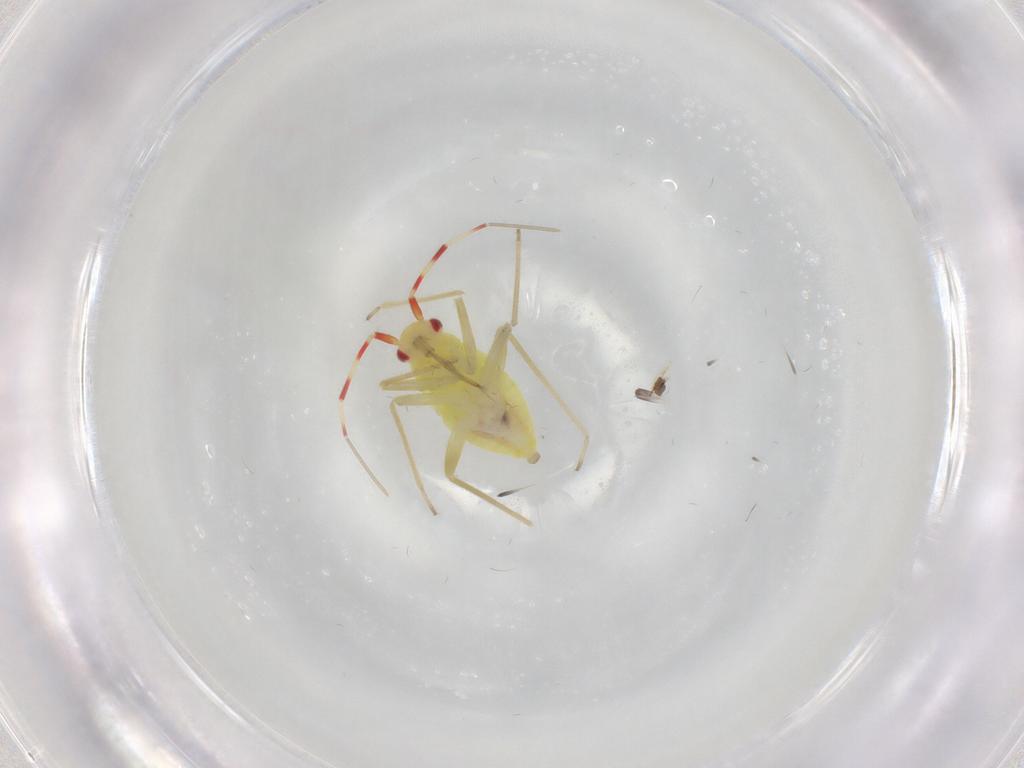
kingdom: Animalia
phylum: Arthropoda
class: Insecta
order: Hemiptera
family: Miridae
